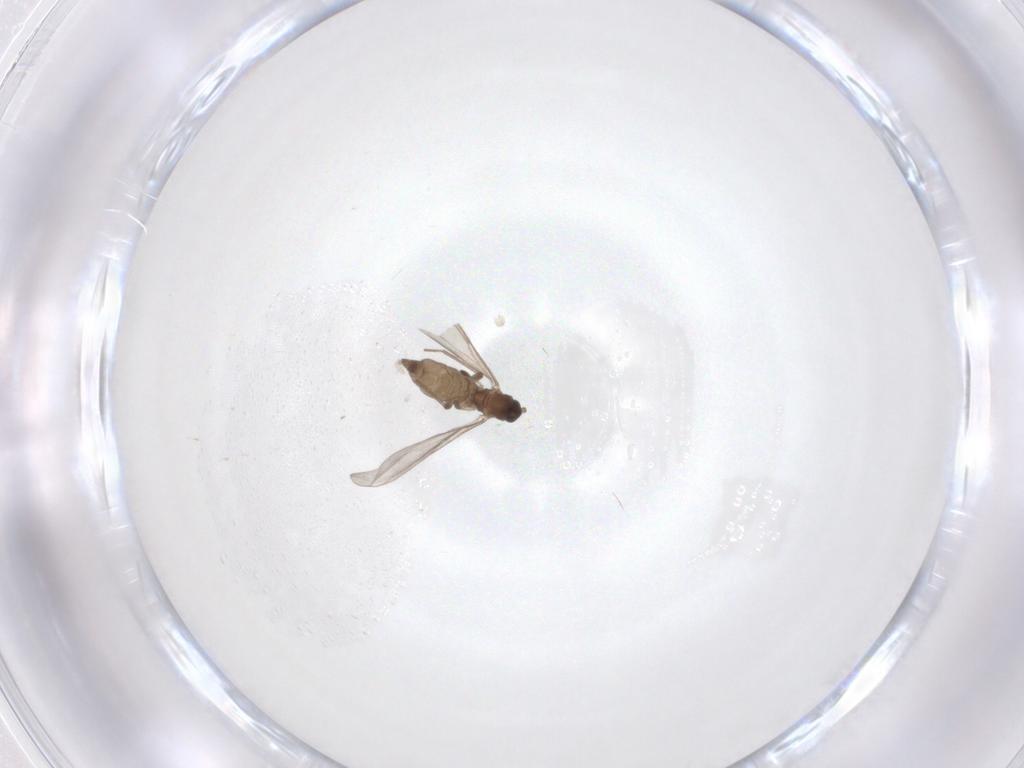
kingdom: Animalia
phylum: Arthropoda
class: Insecta
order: Diptera
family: Cecidomyiidae
